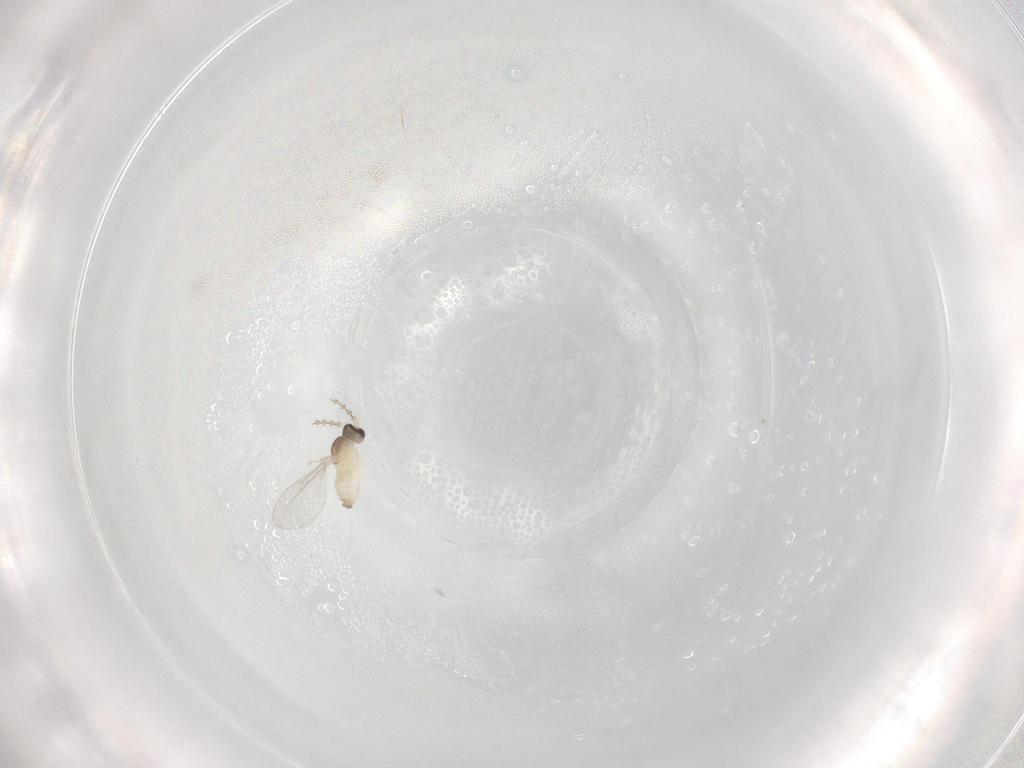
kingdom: Animalia
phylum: Arthropoda
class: Insecta
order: Diptera
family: Cecidomyiidae
